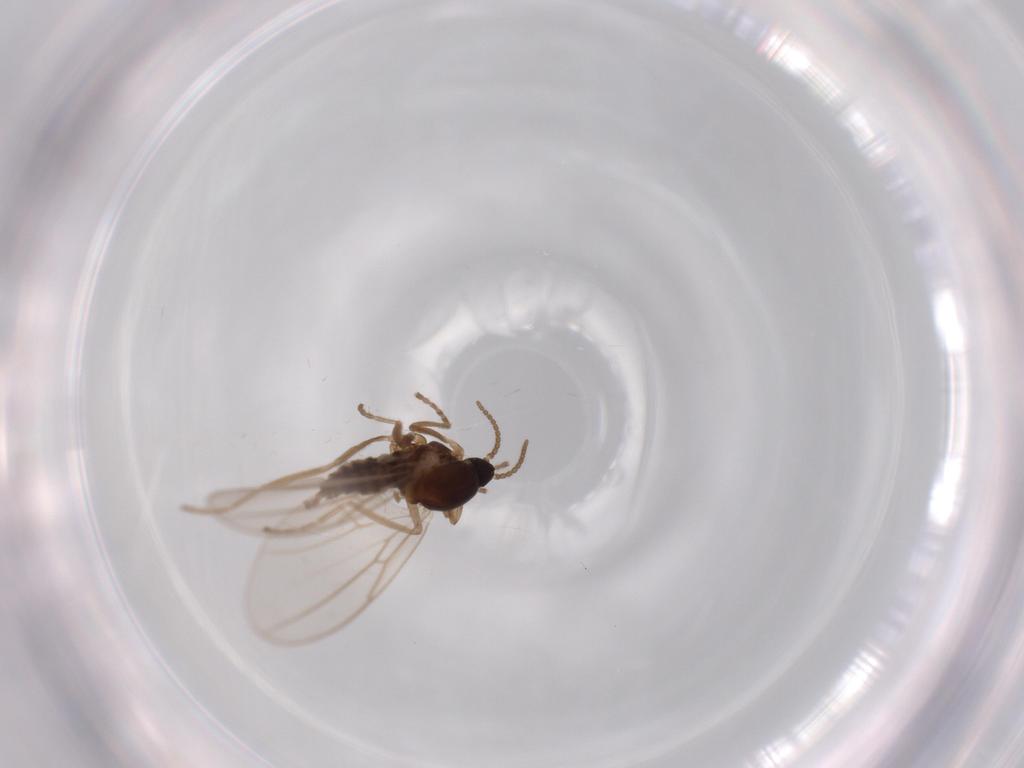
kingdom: Animalia
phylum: Arthropoda
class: Insecta
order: Diptera
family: Cecidomyiidae
